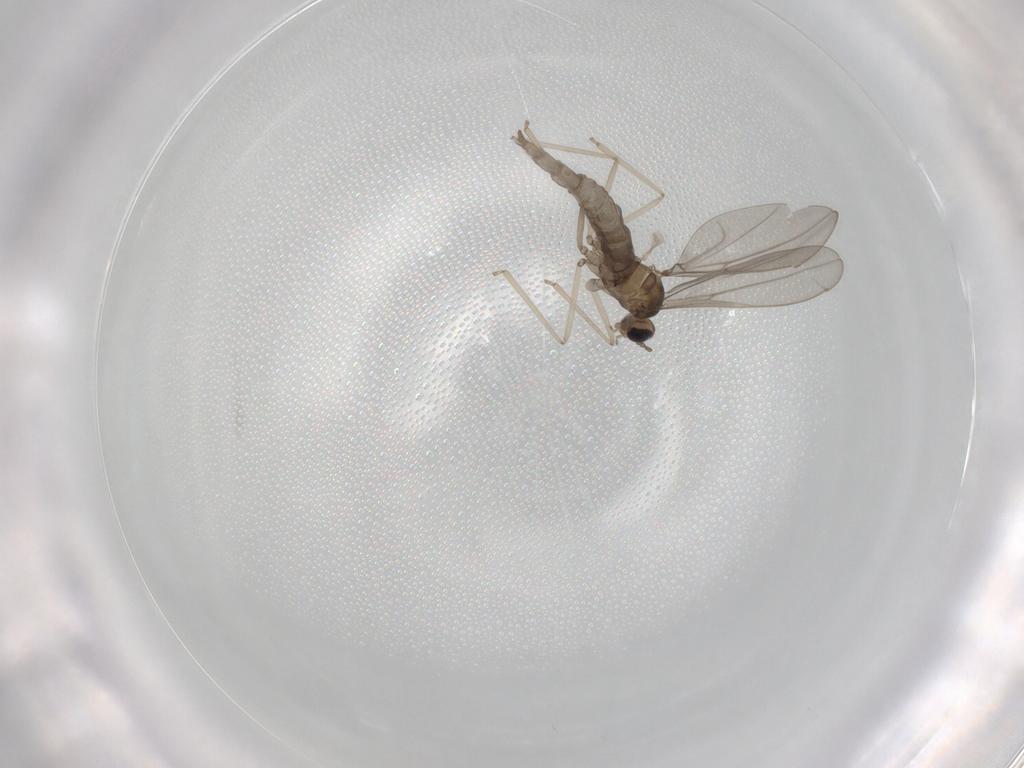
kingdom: Animalia
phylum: Arthropoda
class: Insecta
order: Diptera
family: Cecidomyiidae
